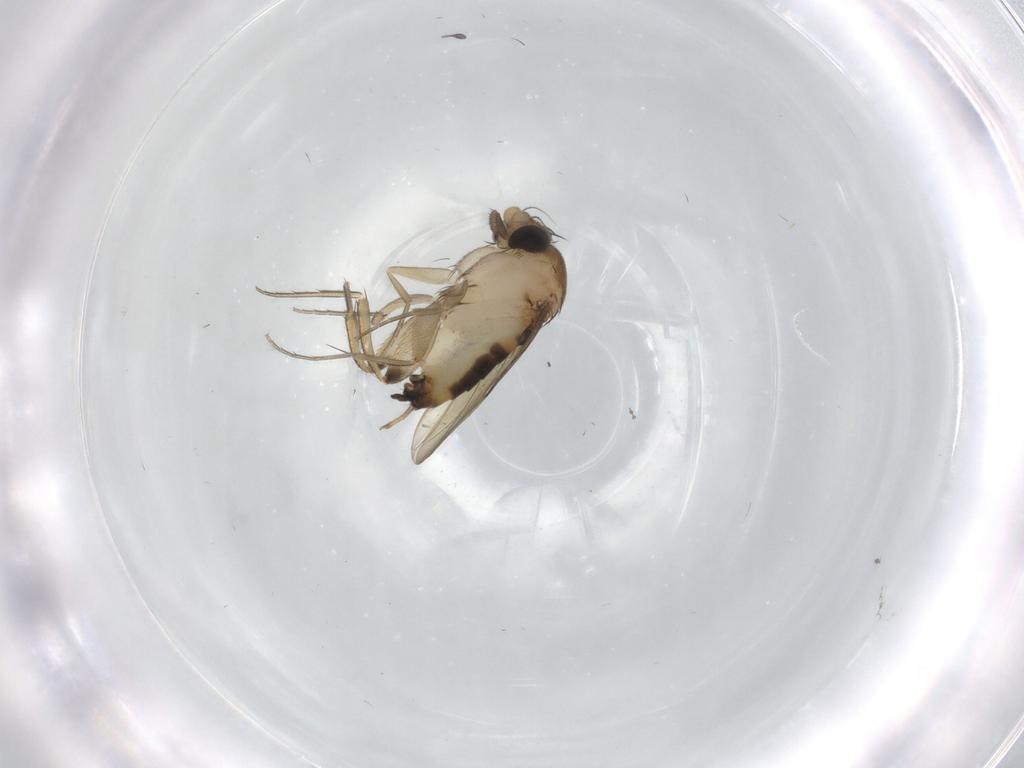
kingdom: Animalia
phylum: Arthropoda
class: Insecta
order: Diptera
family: Phoridae
